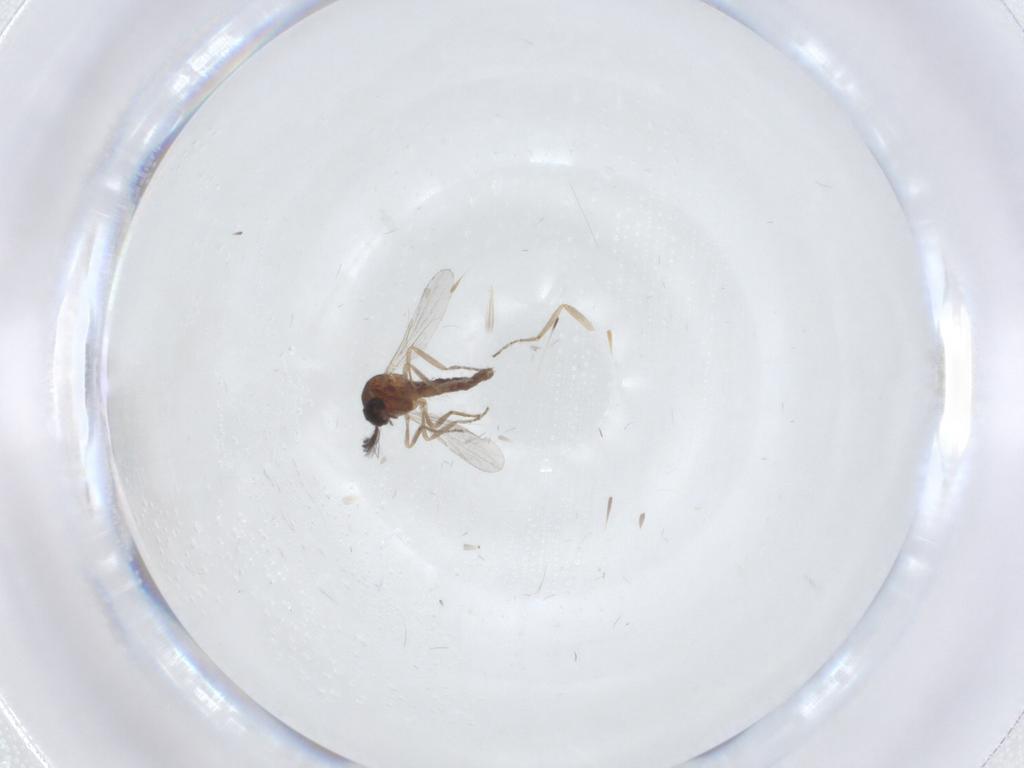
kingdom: Animalia
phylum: Arthropoda
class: Insecta
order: Diptera
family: Ceratopogonidae
